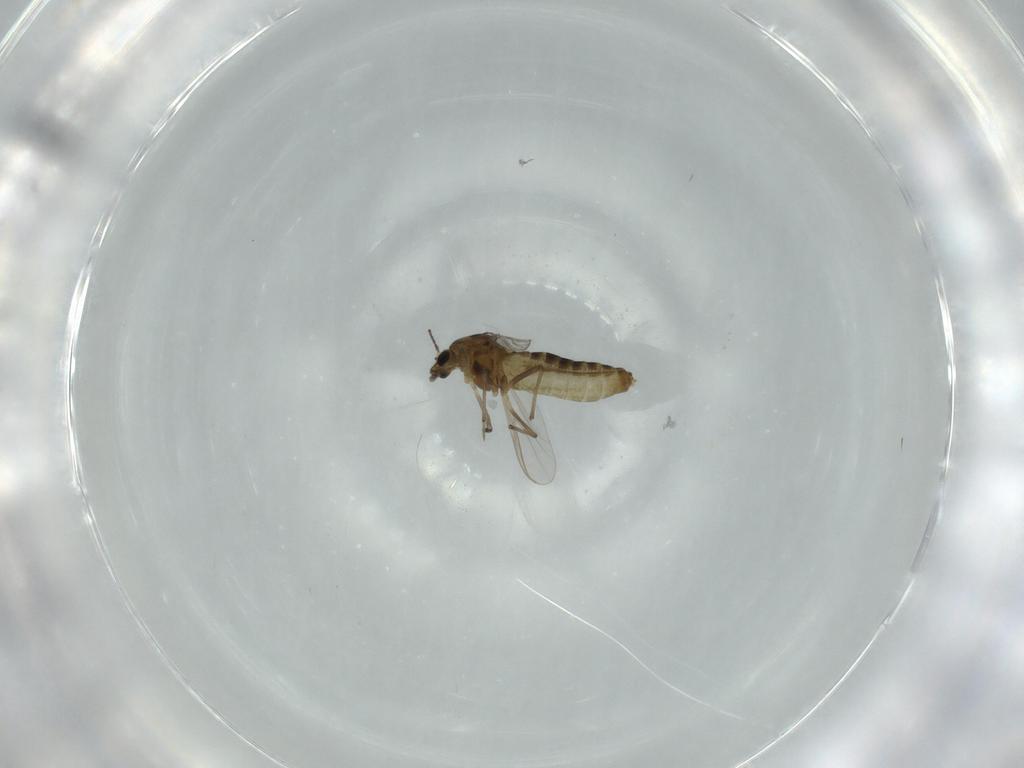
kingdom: Animalia
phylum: Arthropoda
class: Insecta
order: Diptera
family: Chironomidae
